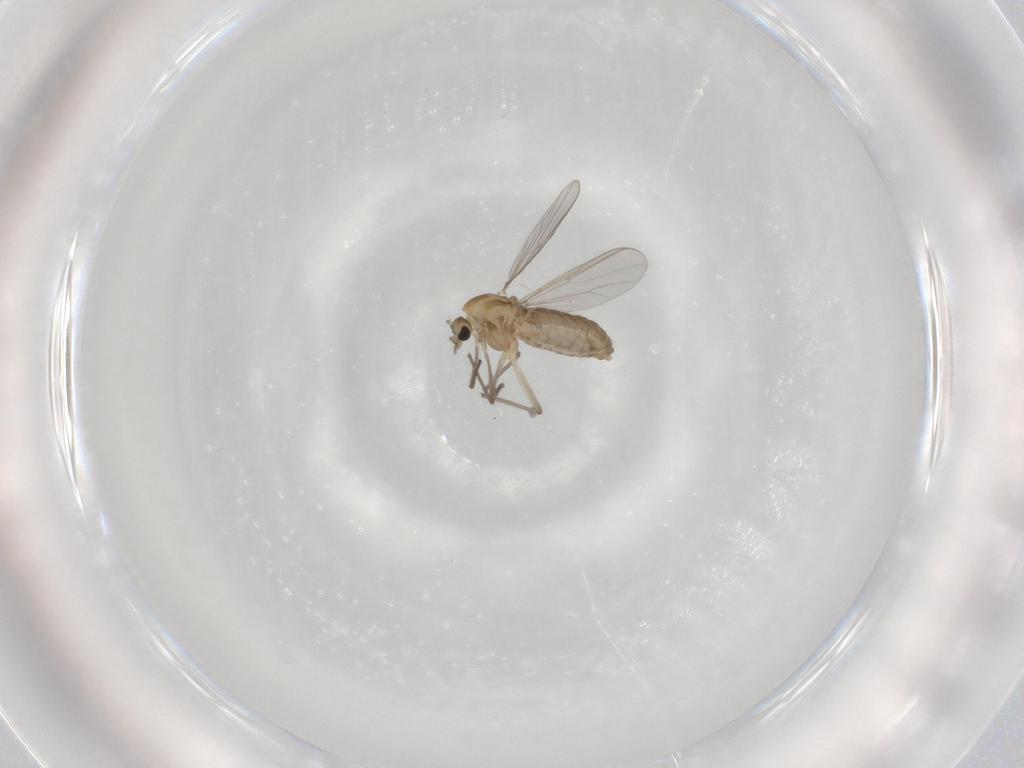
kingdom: Animalia
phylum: Arthropoda
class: Insecta
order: Diptera
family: Chironomidae
